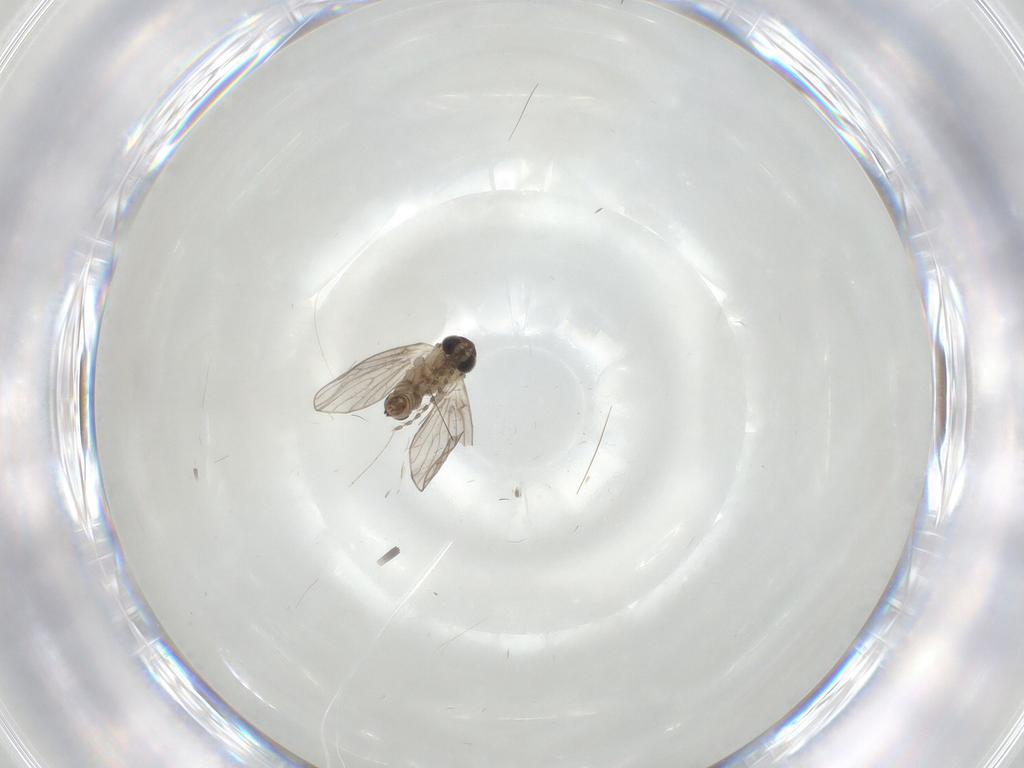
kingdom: Animalia
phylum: Arthropoda
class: Insecta
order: Diptera
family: Cecidomyiidae
